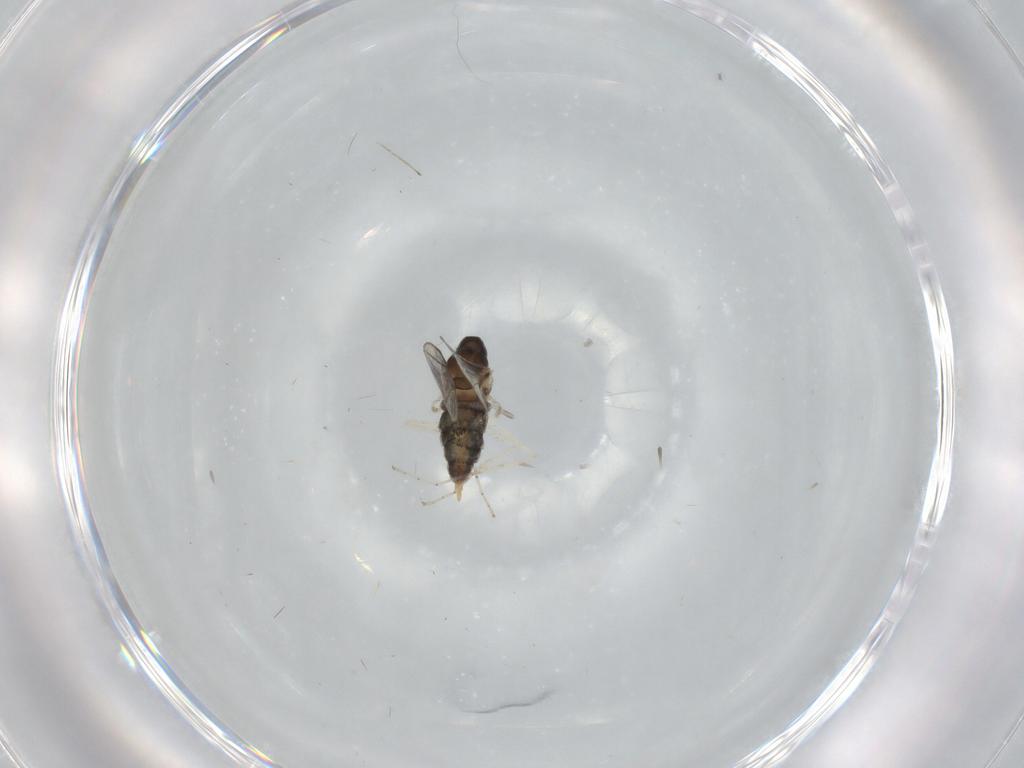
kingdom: Animalia
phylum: Arthropoda
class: Insecta
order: Diptera
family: Cecidomyiidae
